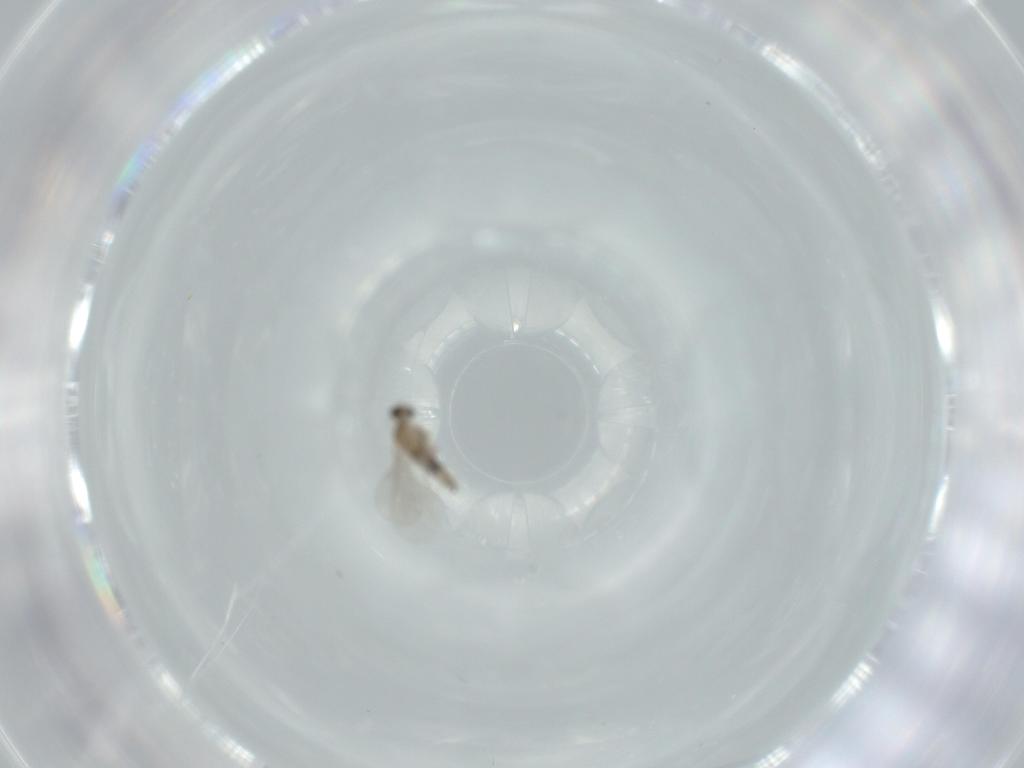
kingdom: Animalia
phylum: Arthropoda
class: Insecta
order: Diptera
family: Cecidomyiidae
